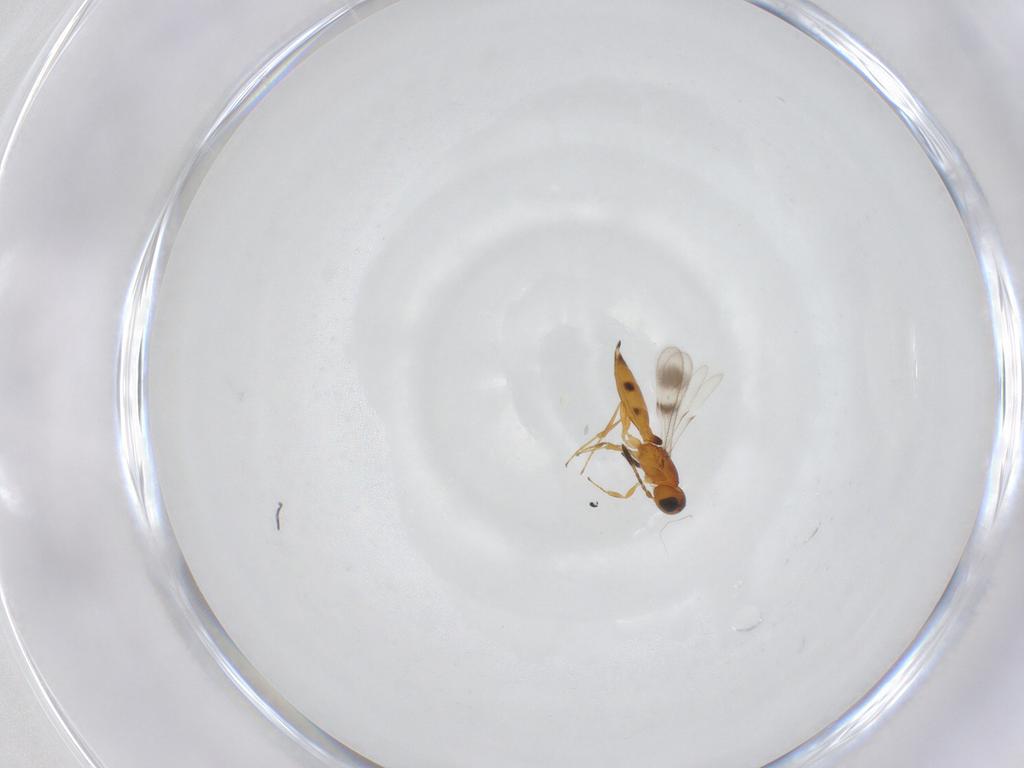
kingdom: Animalia
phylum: Arthropoda
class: Insecta
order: Hymenoptera
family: Scelionidae
